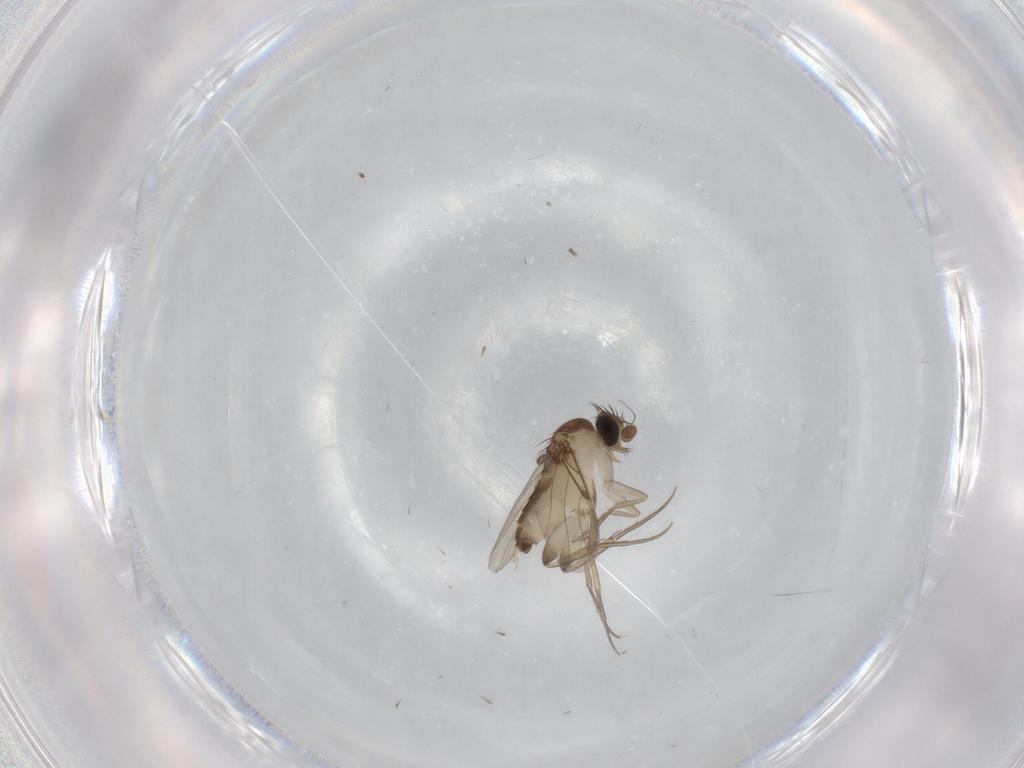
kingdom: Animalia
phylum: Arthropoda
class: Insecta
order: Diptera
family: Phoridae
